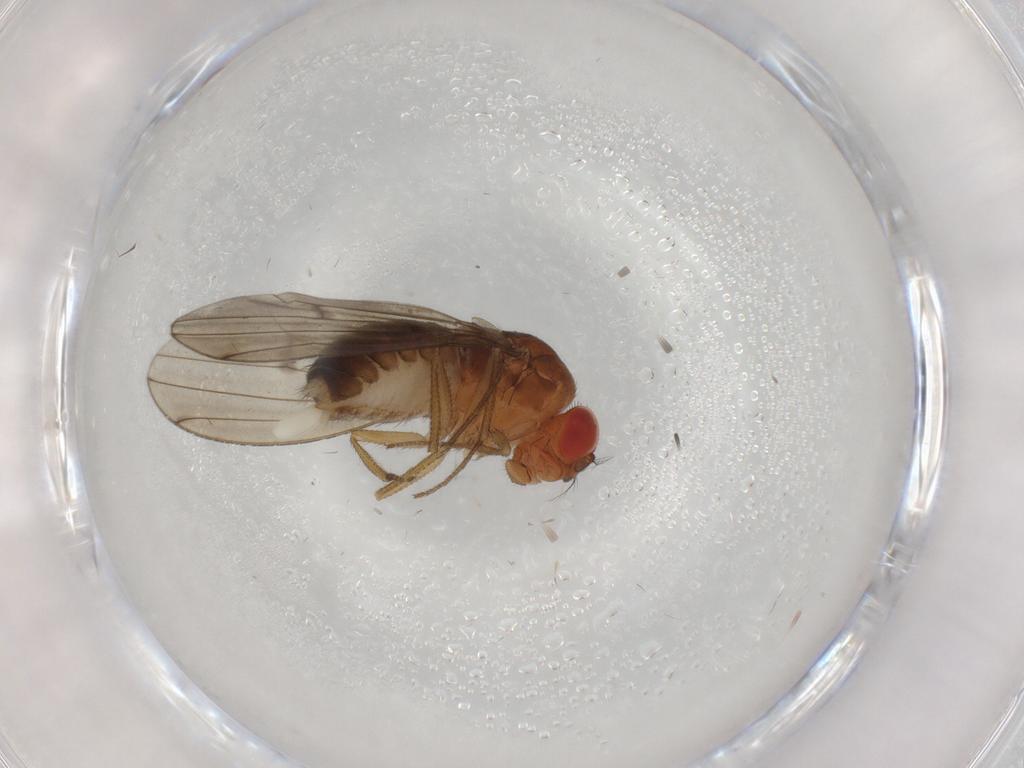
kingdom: Animalia
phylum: Arthropoda
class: Insecta
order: Diptera
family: Drosophilidae
